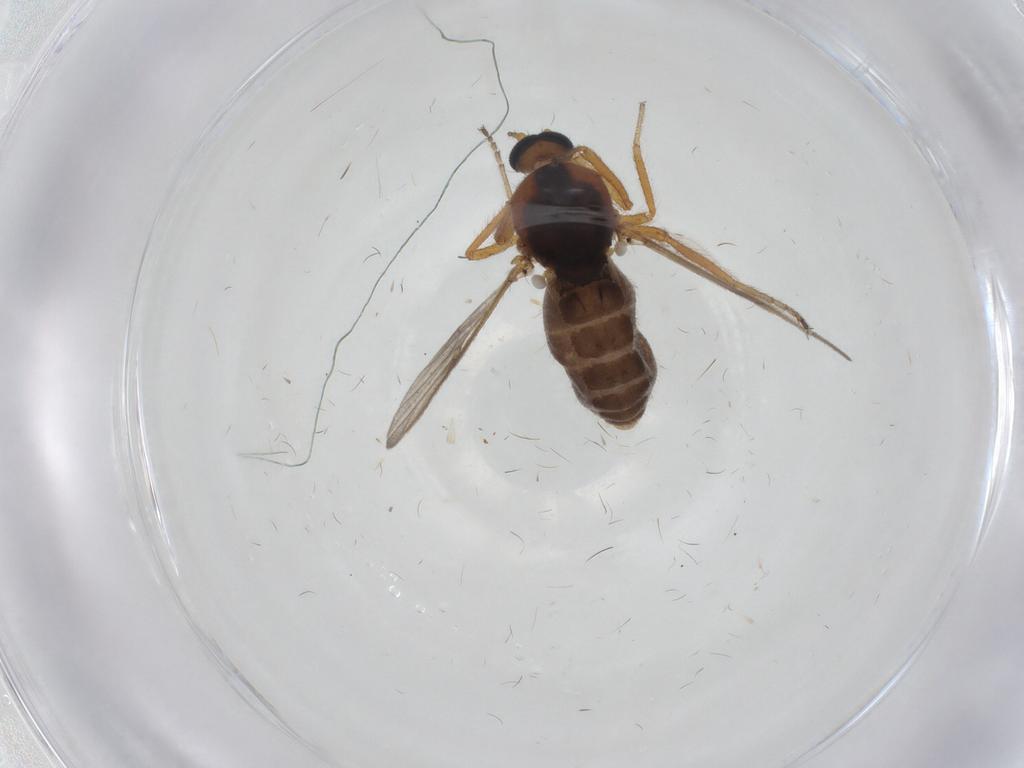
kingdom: Animalia
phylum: Arthropoda
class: Insecta
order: Diptera
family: Ceratopogonidae
